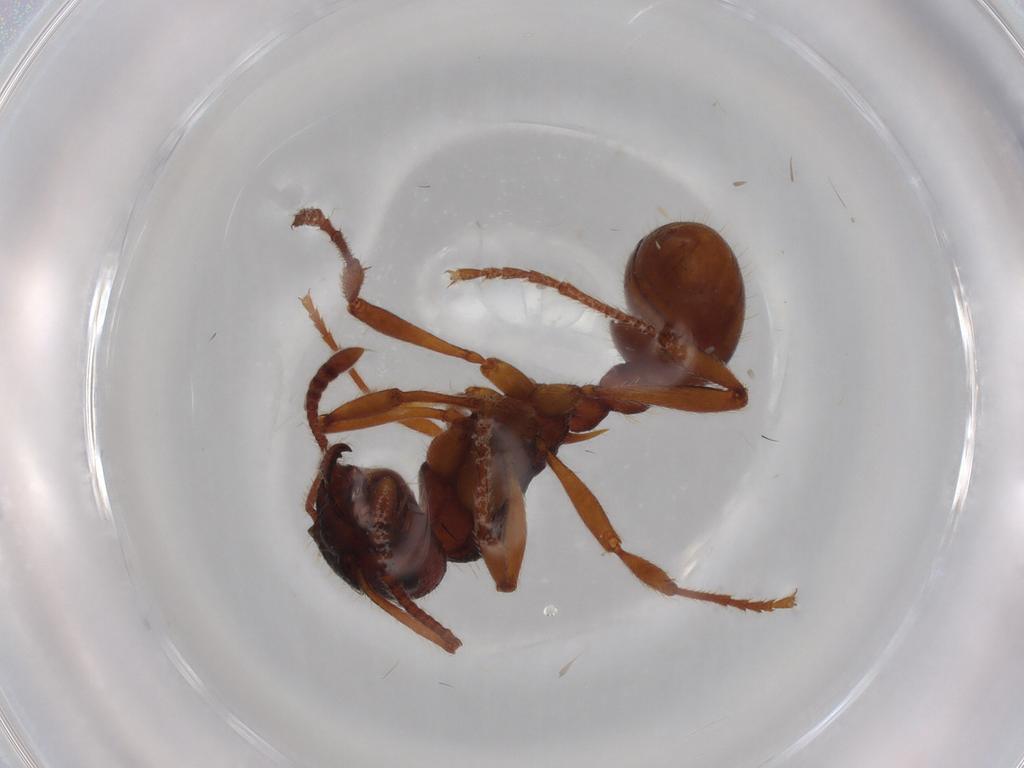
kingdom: Animalia
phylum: Arthropoda
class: Insecta
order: Hymenoptera
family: Formicidae
